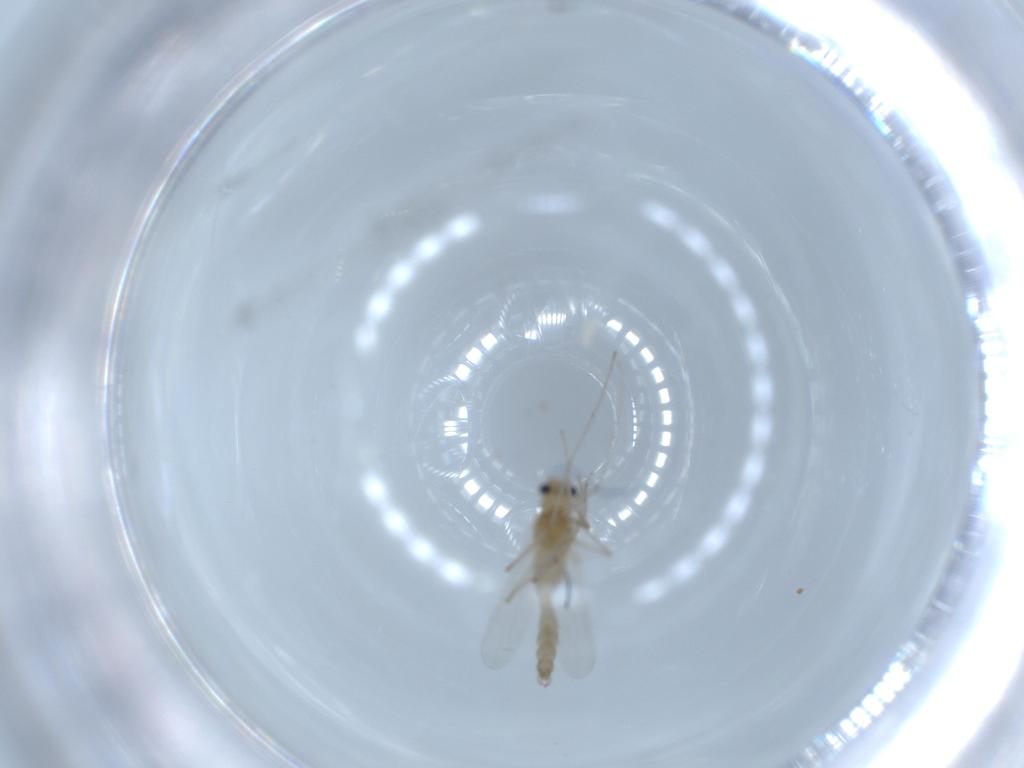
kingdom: Animalia
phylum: Arthropoda
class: Insecta
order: Diptera
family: Cecidomyiidae
